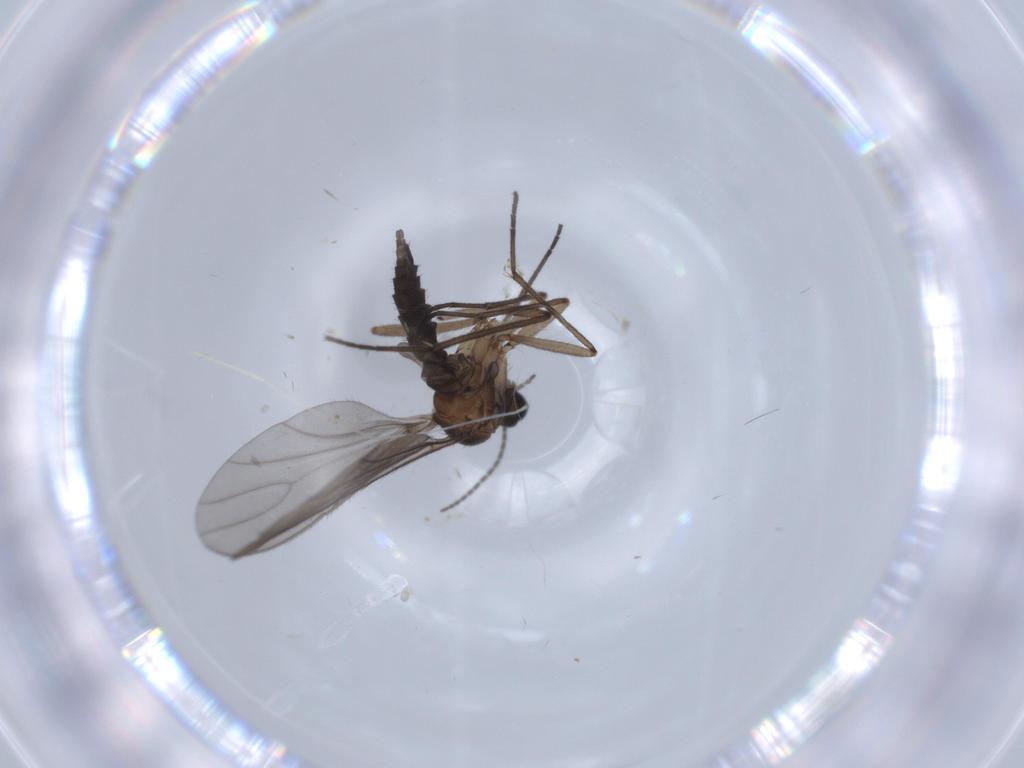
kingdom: Animalia
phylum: Arthropoda
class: Insecta
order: Diptera
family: Cecidomyiidae
